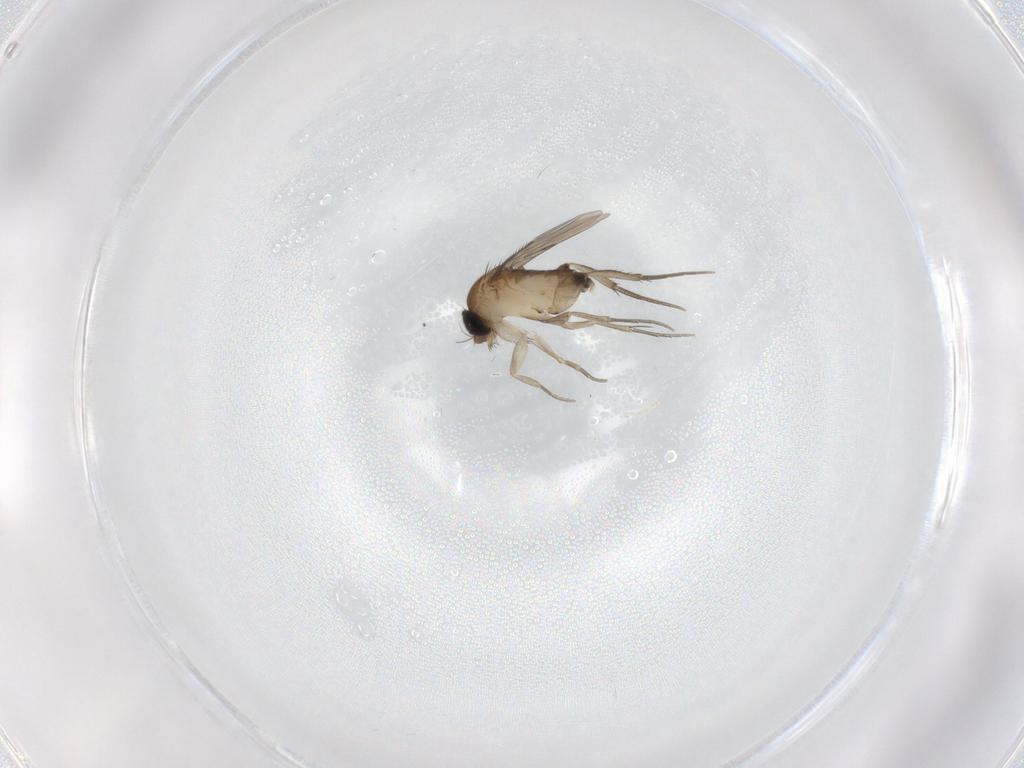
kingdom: Animalia
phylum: Arthropoda
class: Insecta
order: Diptera
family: Phoridae
